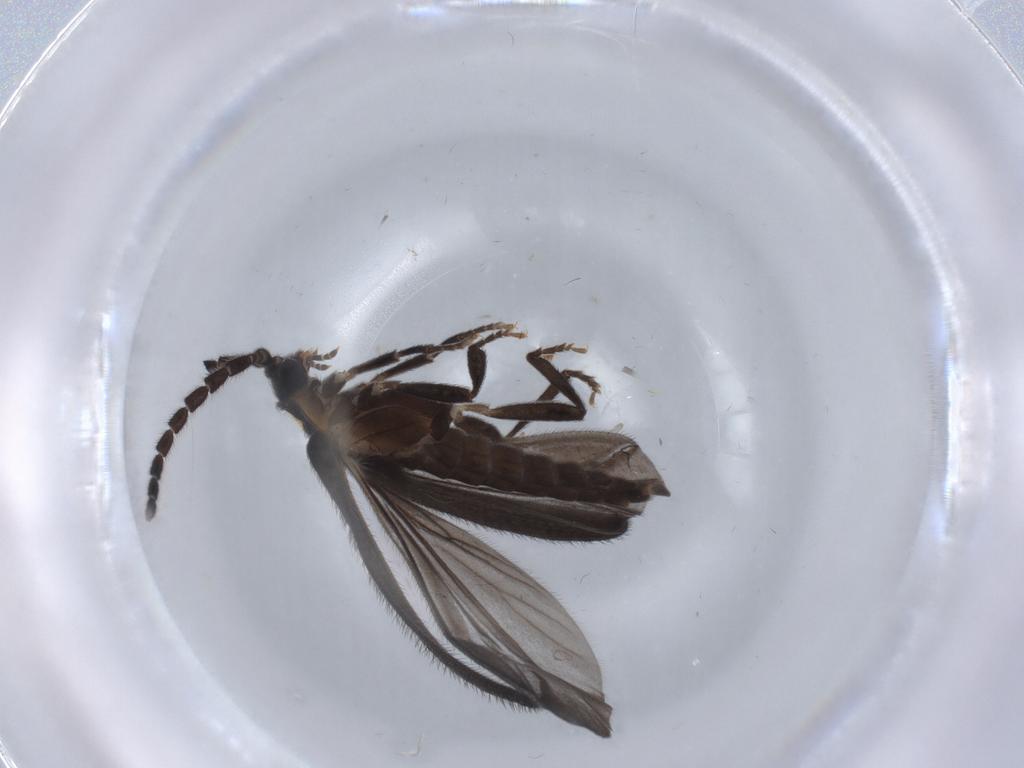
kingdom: Animalia
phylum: Arthropoda
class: Insecta
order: Coleoptera
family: Lycidae
